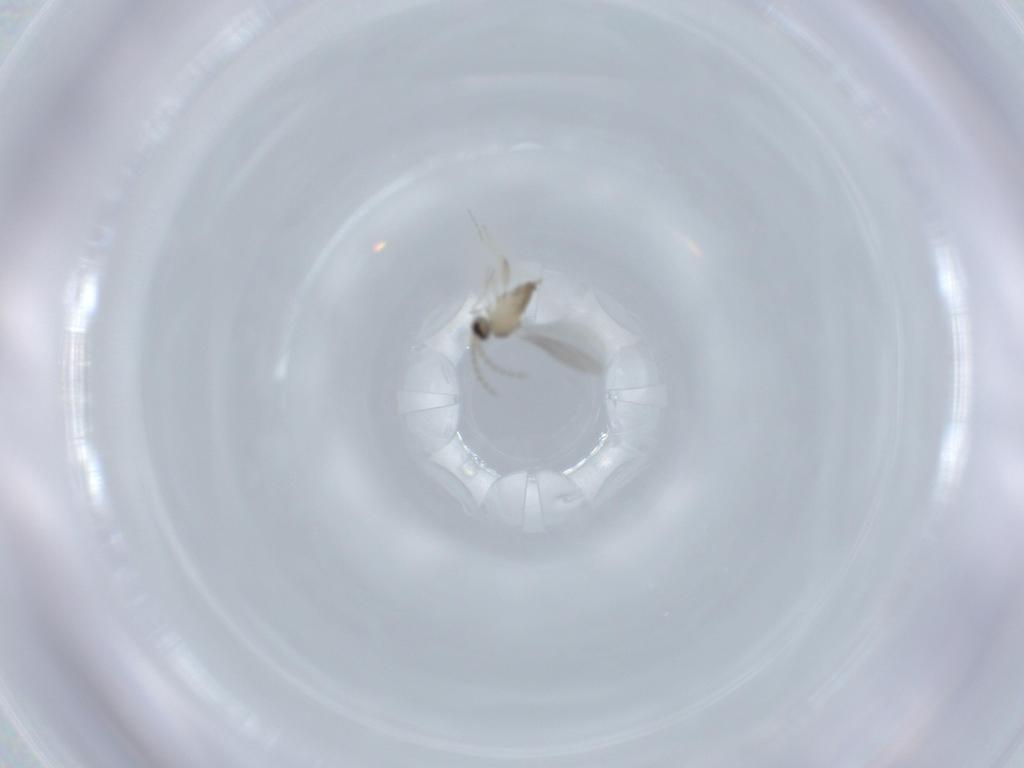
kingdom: Animalia
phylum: Arthropoda
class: Insecta
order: Diptera
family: Cecidomyiidae
